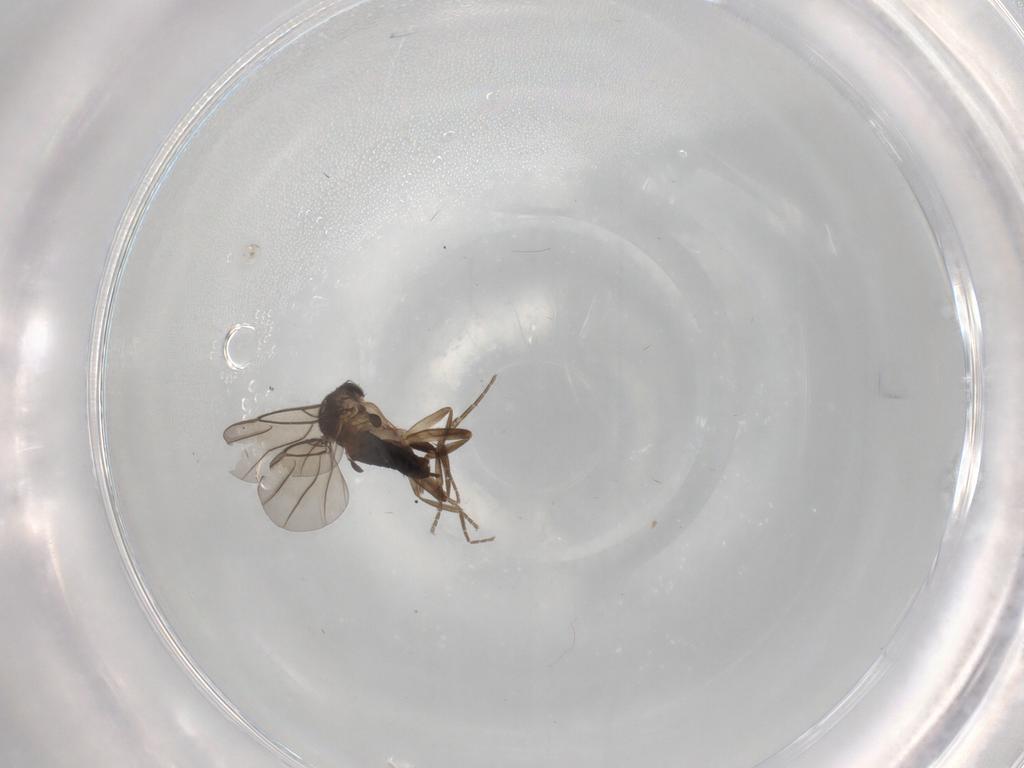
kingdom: Animalia
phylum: Arthropoda
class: Insecta
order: Diptera
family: Phoridae
